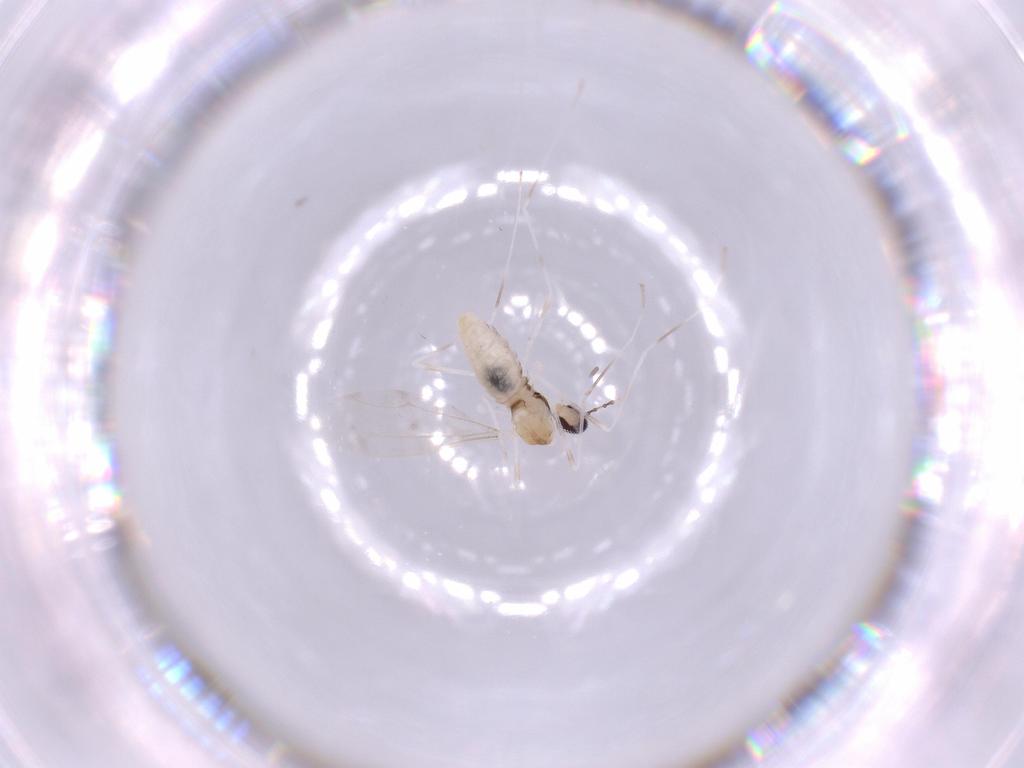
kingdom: Animalia
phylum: Arthropoda
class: Insecta
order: Diptera
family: Cecidomyiidae
